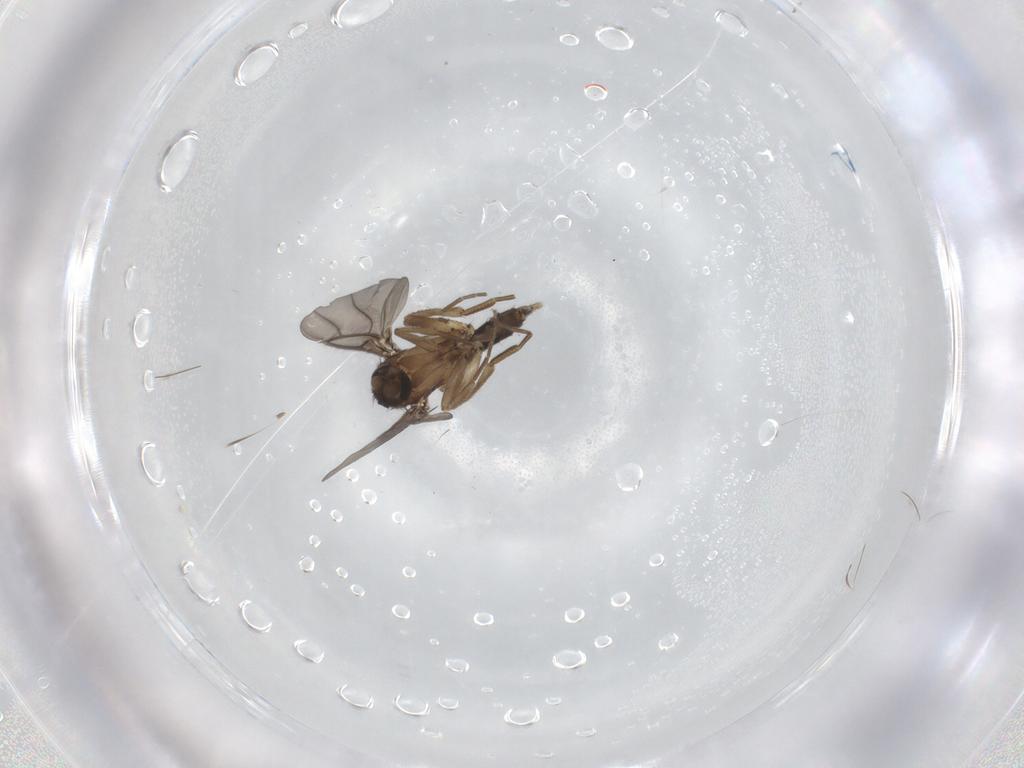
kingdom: Animalia
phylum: Arthropoda
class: Insecta
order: Diptera
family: Phoridae
